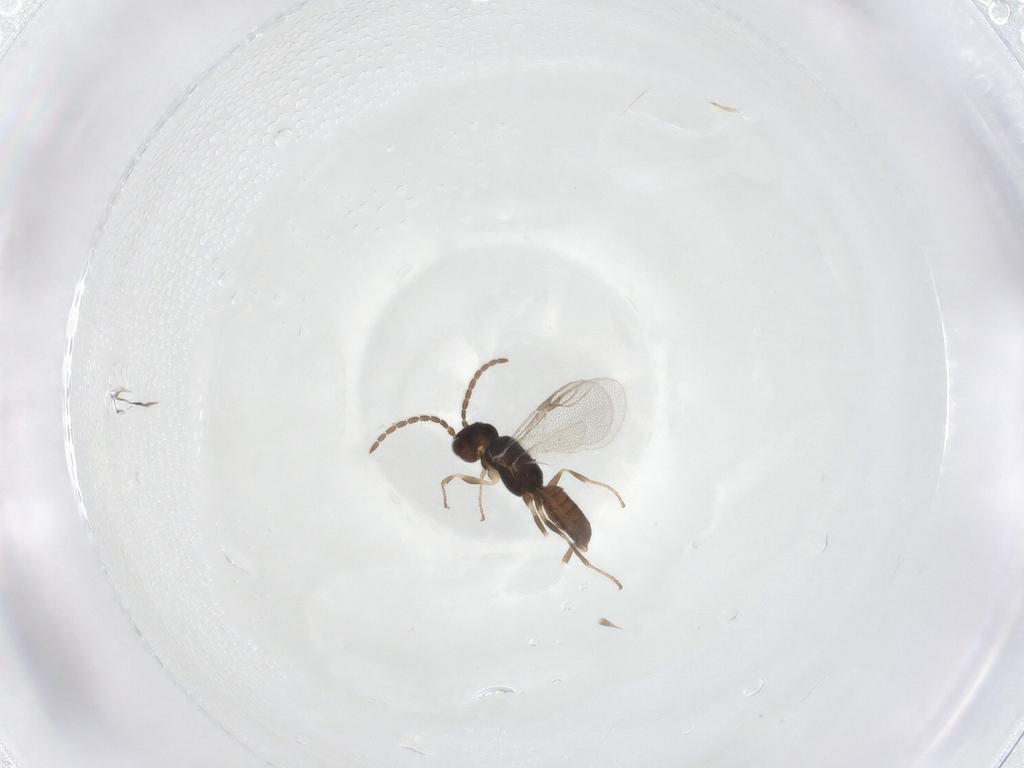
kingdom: Animalia
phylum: Arthropoda
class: Insecta
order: Hymenoptera
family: Dryinidae
